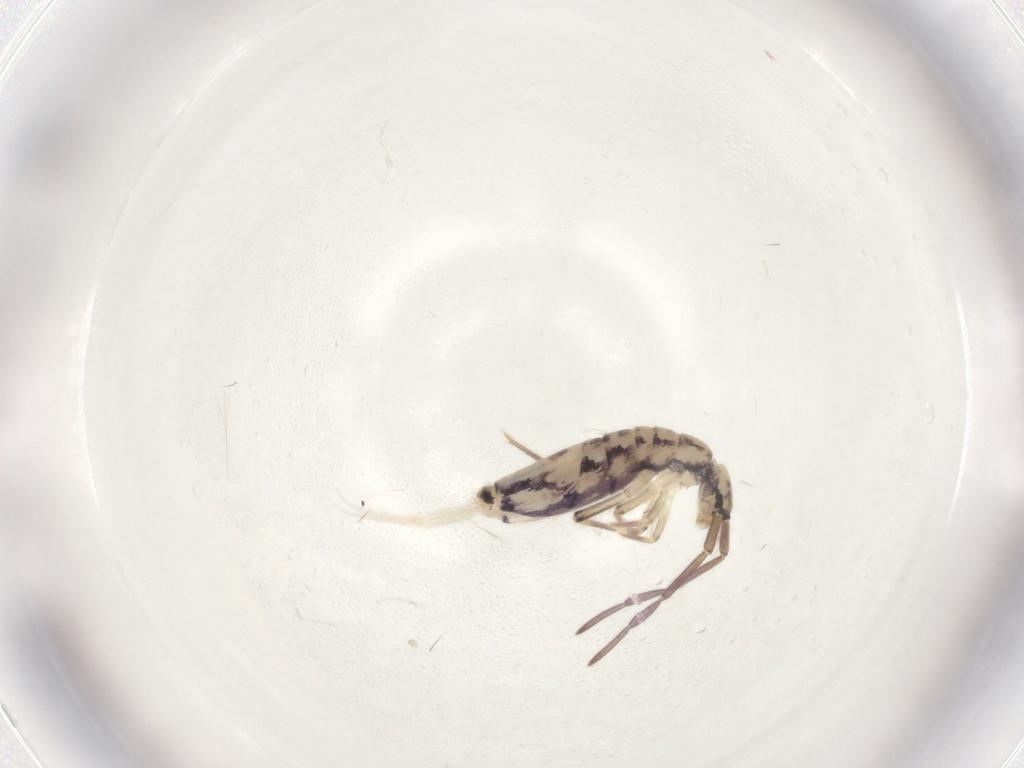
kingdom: Animalia
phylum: Arthropoda
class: Collembola
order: Entomobryomorpha
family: Entomobryidae
